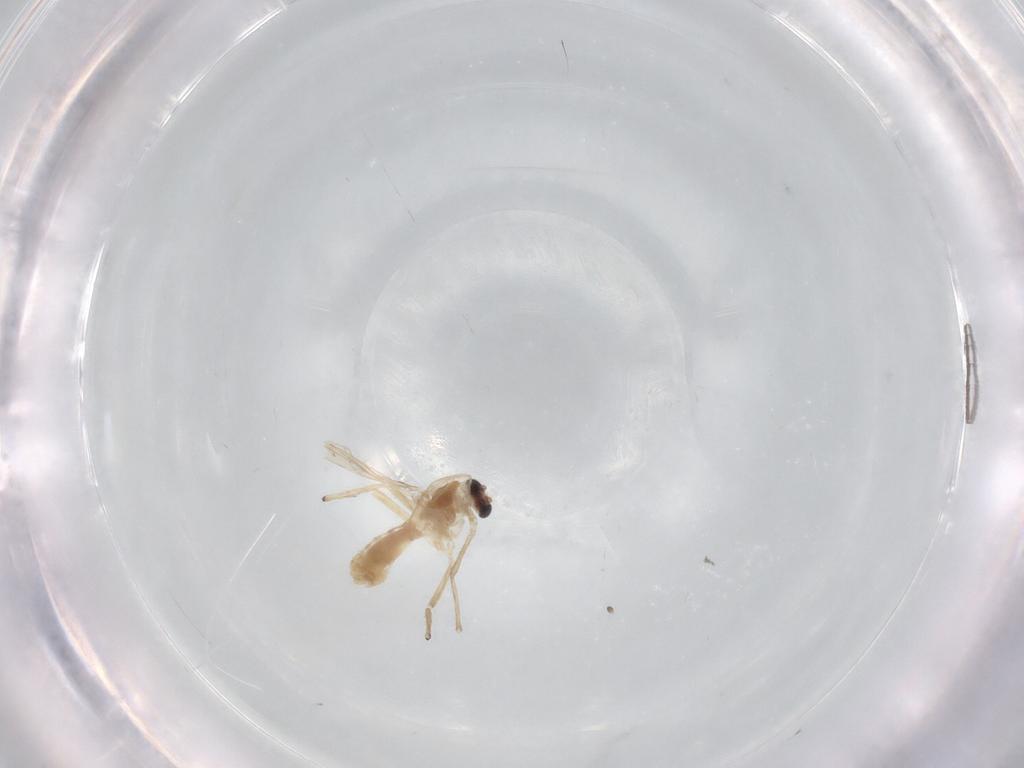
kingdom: Animalia
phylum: Arthropoda
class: Insecta
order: Diptera
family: Chironomidae
